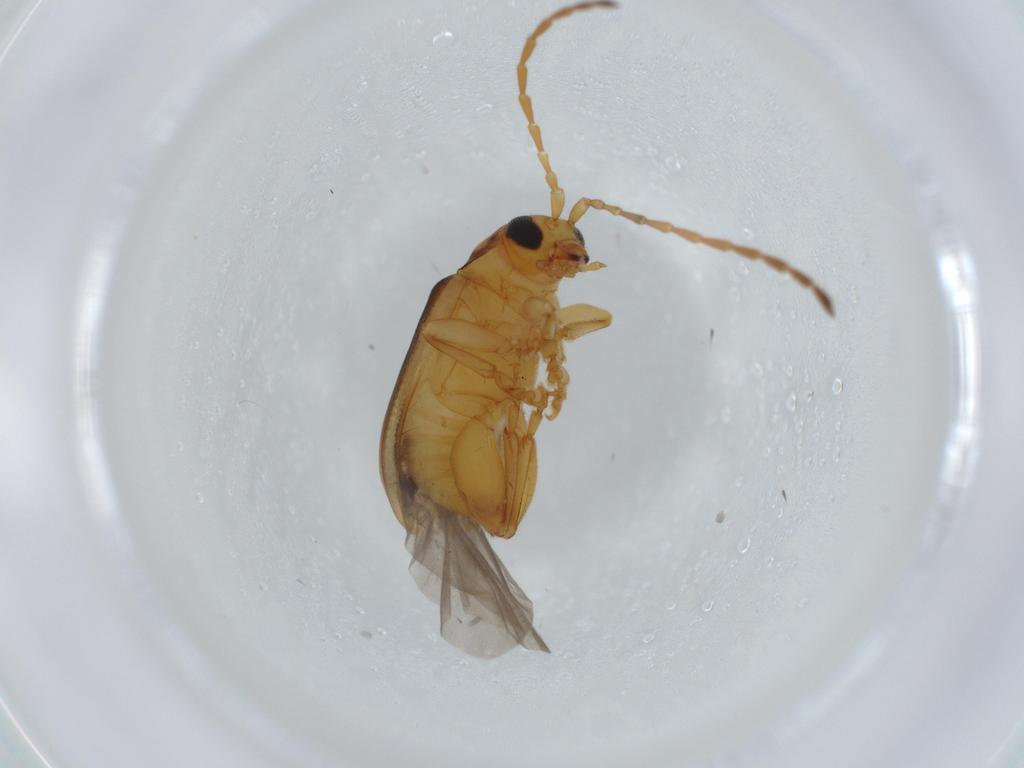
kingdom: Animalia
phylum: Arthropoda
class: Insecta
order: Coleoptera
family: Chrysomelidae
